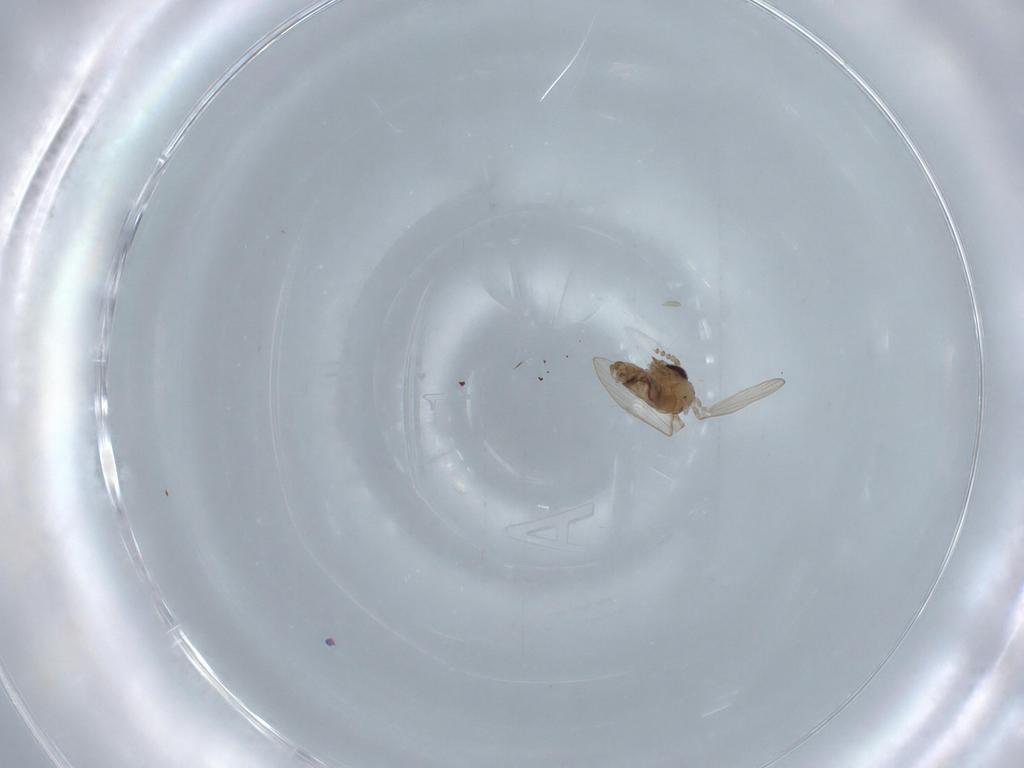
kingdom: Animalia
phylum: Arthropoda
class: Insecta
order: Diptera
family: Psychodidae
